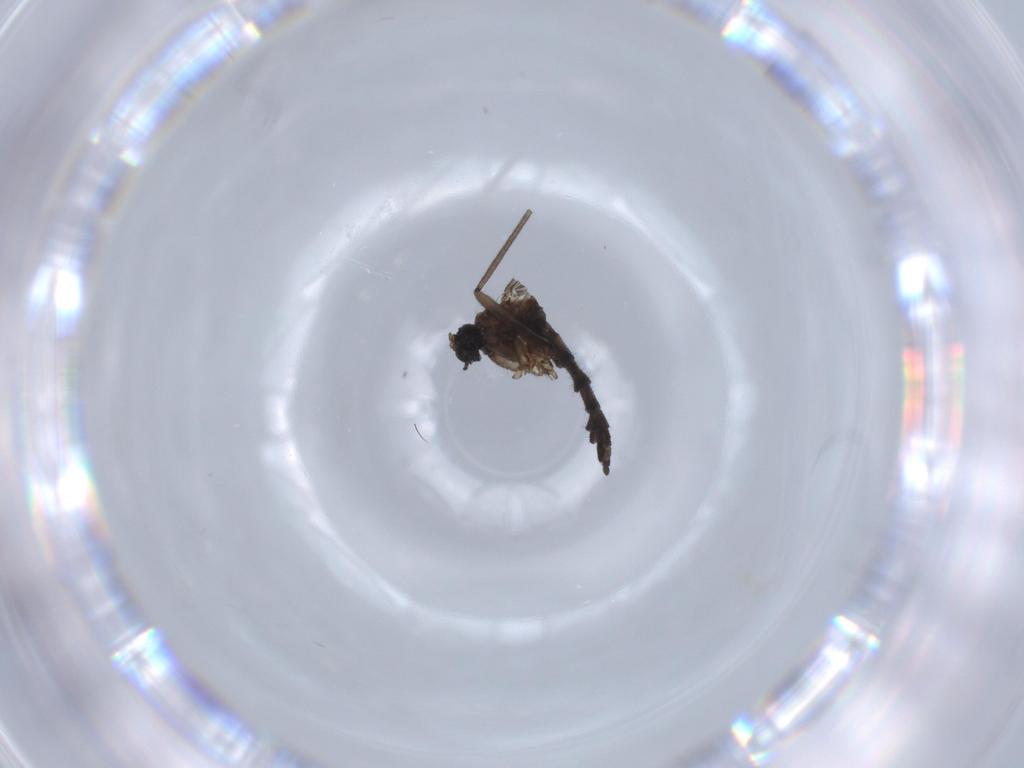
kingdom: Animalia
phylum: Arthropoda
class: Insecta
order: Diptera
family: Sciaridae
